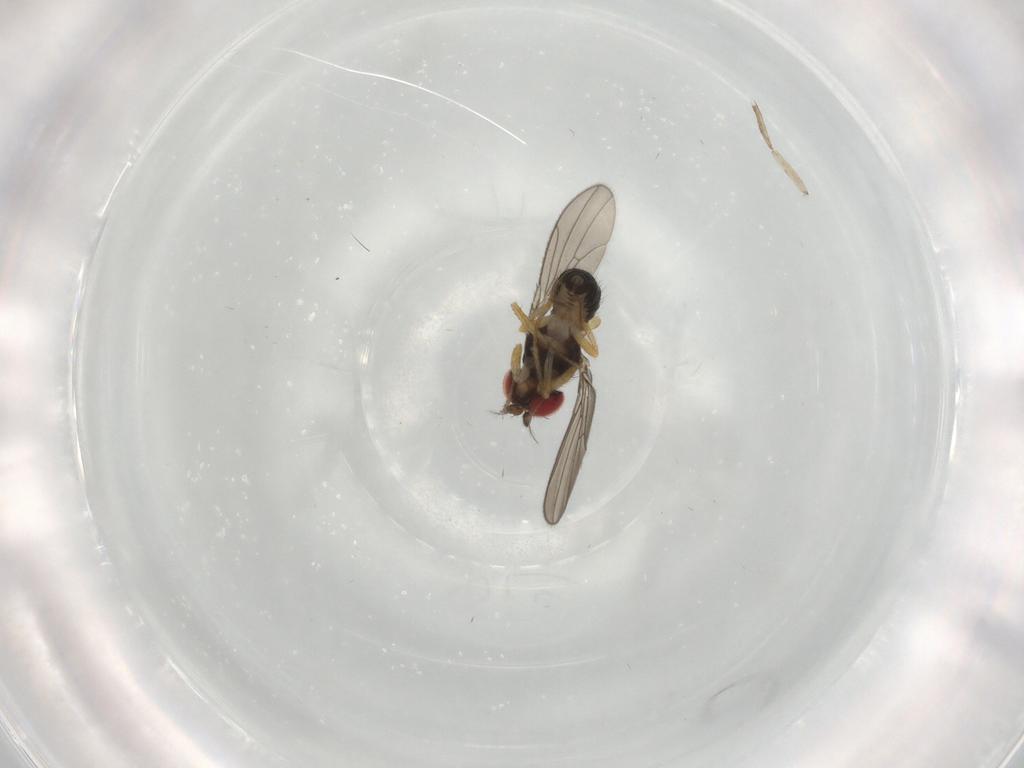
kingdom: Animalia
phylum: Arthropoda
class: Insecta
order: Diptera
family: Drosophilidae
